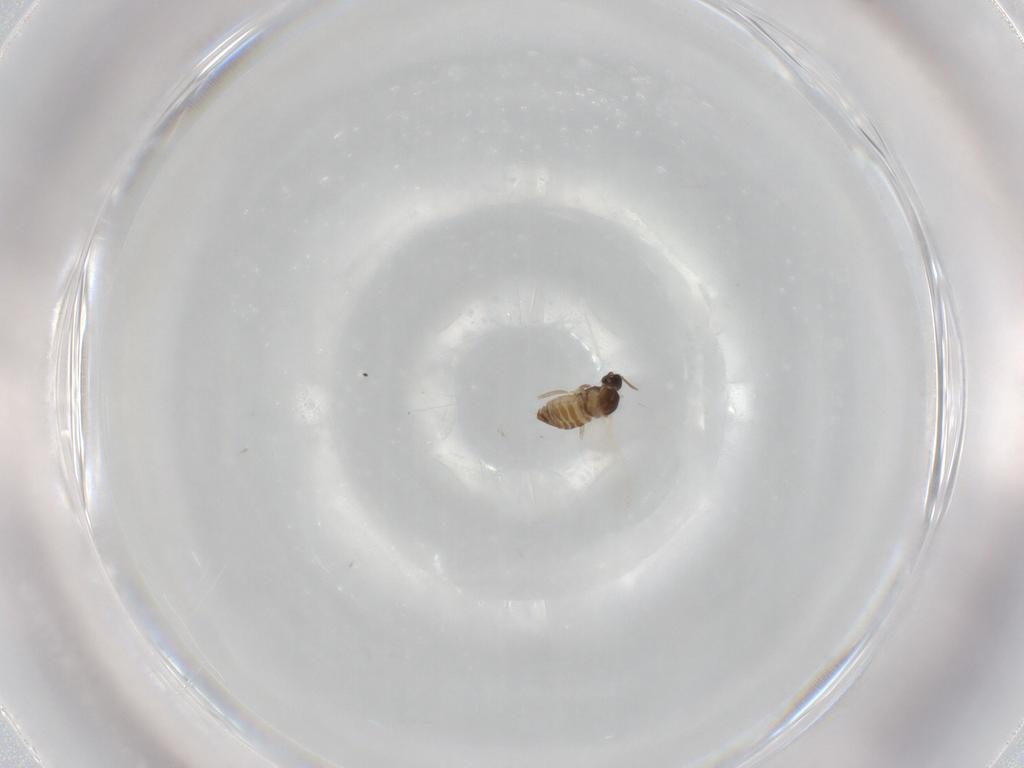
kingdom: Animalia
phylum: Arthropoda
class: Insecta
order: Diptera
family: Cecidomyiidae
